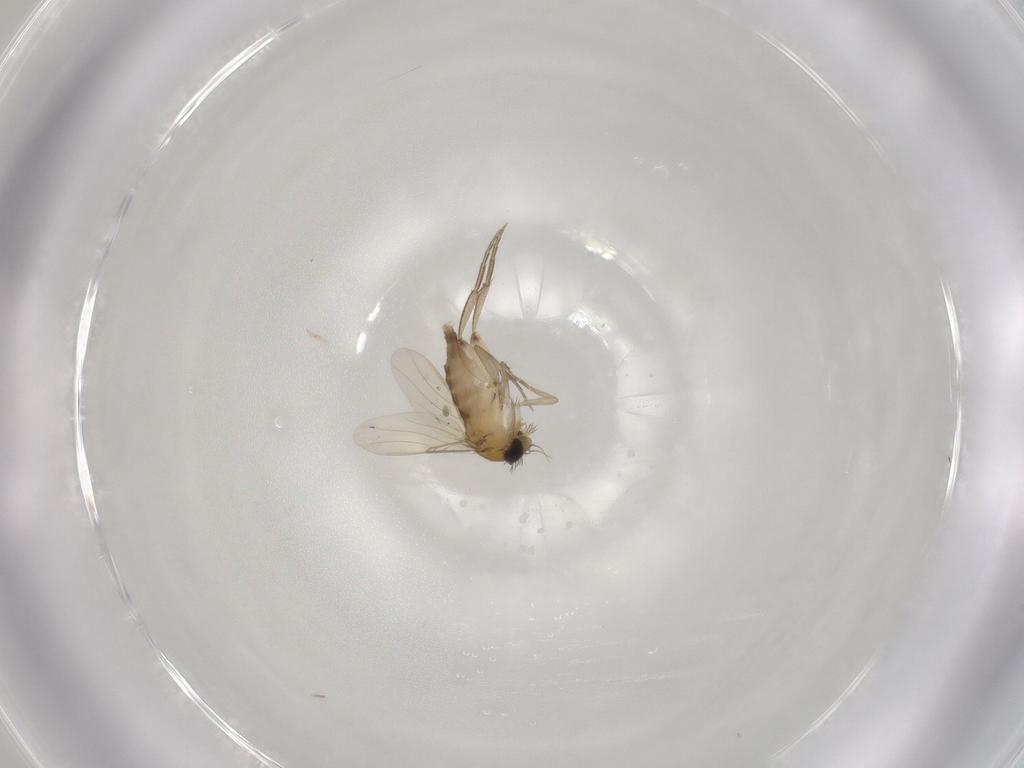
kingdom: Animalia
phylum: Arthropoda
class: Insecta
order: Diptera
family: Phoridae
